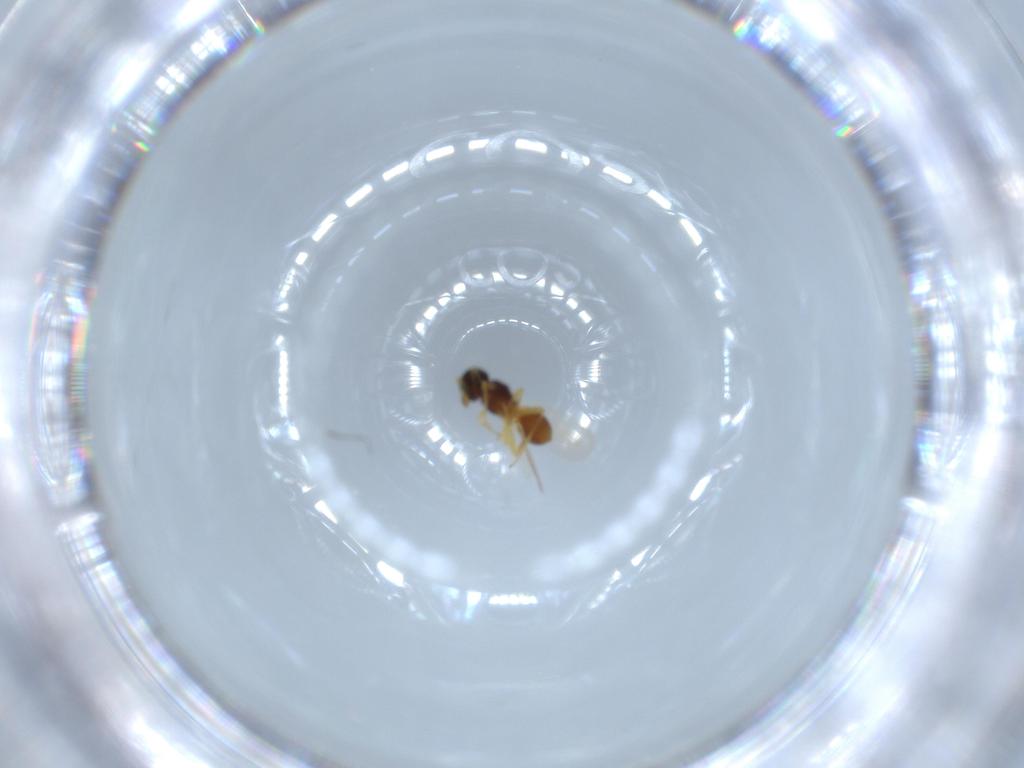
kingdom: Animalia
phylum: Arthropoda
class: Insecta
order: Hymenoptera
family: Platygastridae
